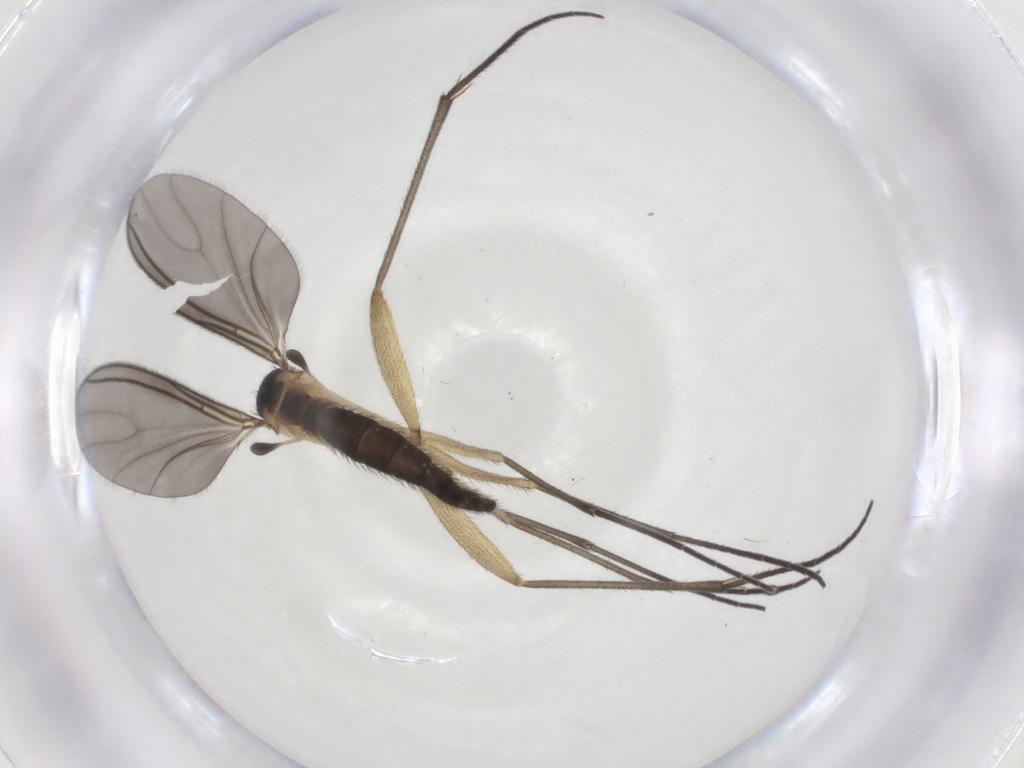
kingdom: Animalia
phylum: Arthropoda
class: Insecta
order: Diptera
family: Sciaridae
